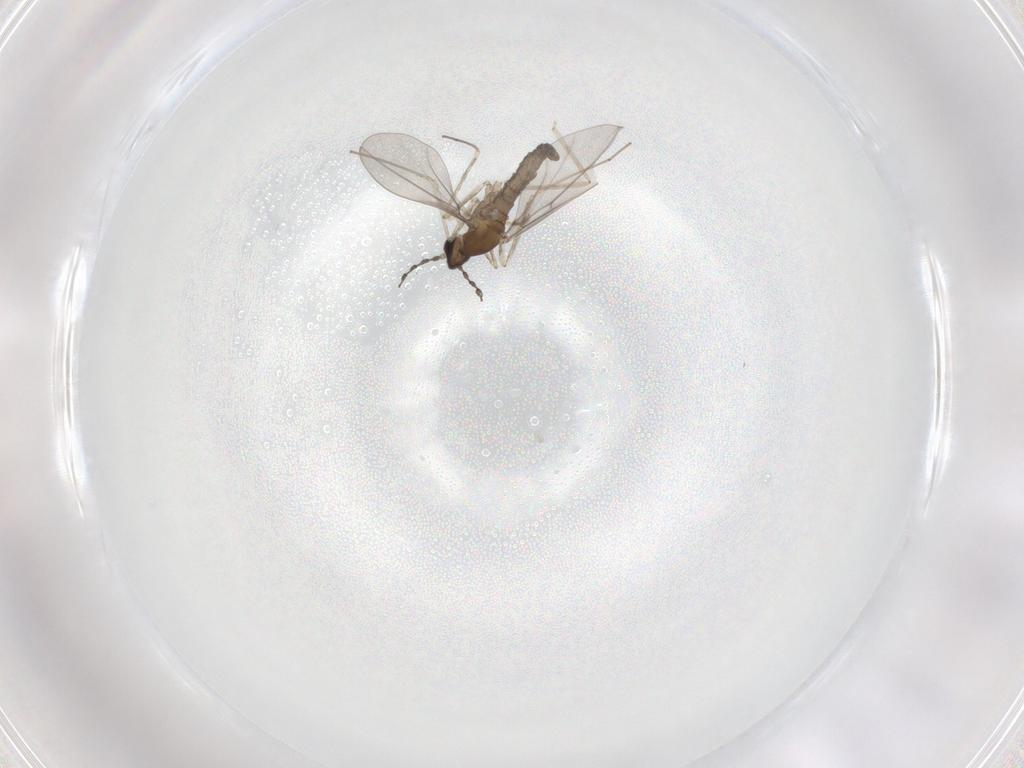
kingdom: Animalia
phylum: Arthropoda
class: Insecta
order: Diptera
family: Cecidomyiidae
